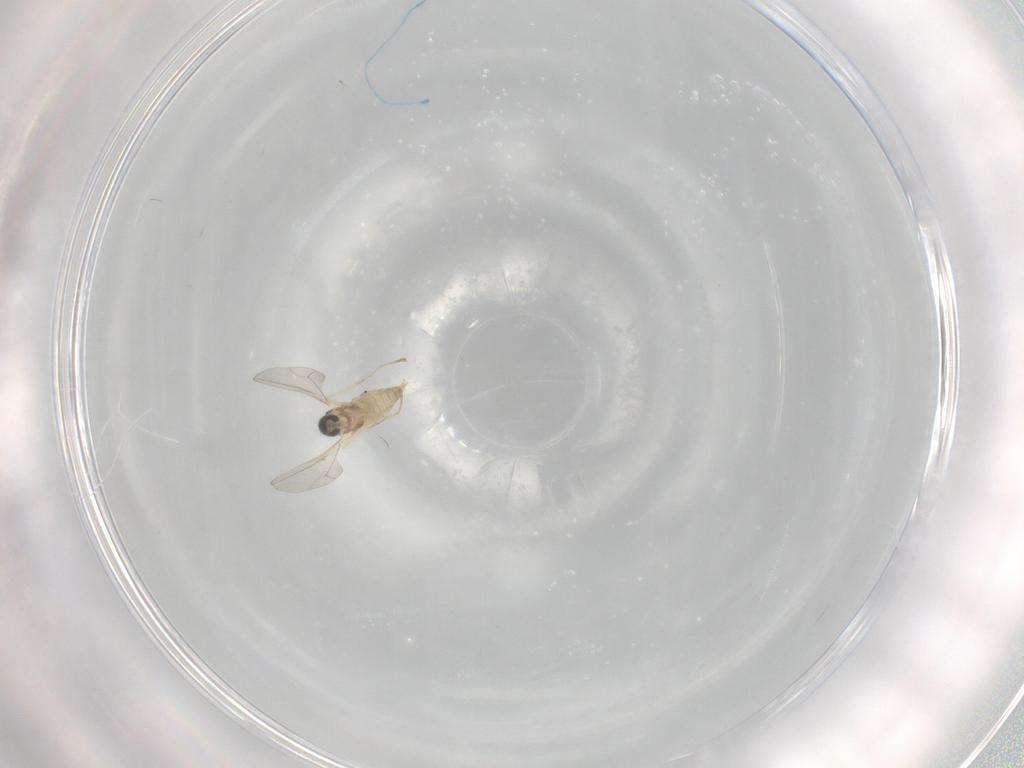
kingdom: Animalia
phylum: Arthropoda
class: Insecta
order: Diptera
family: Cecidomyiidae
